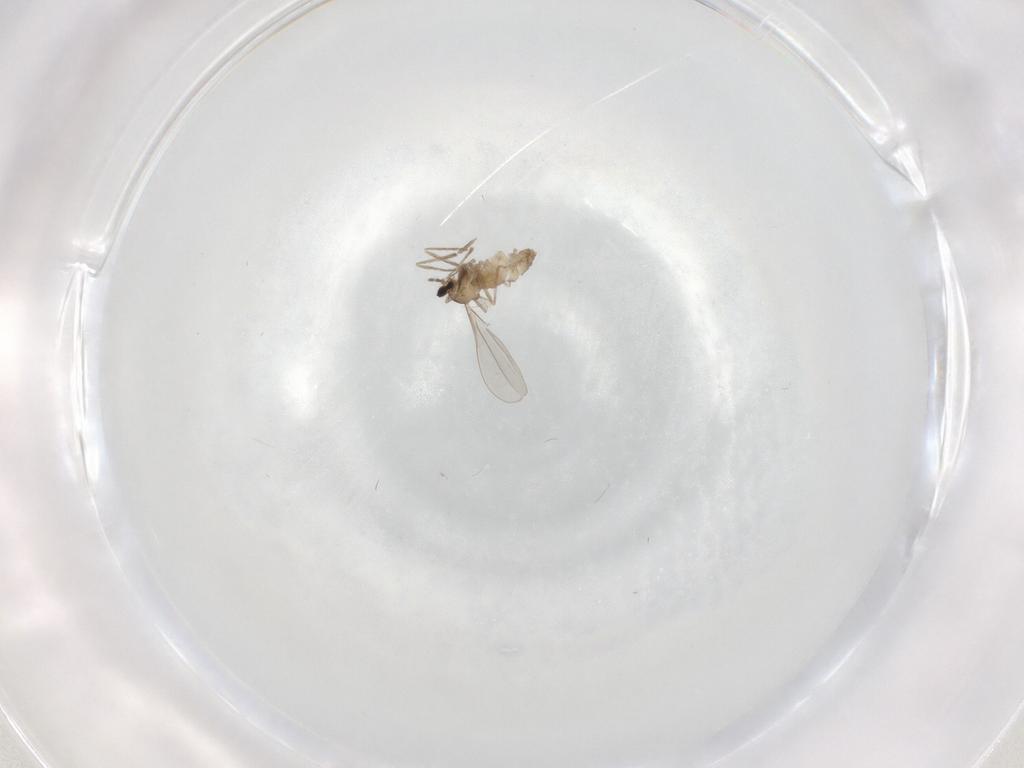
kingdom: Animalia
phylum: Arthropoda
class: Insecta
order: Diptera
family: Cecidomyiidae
